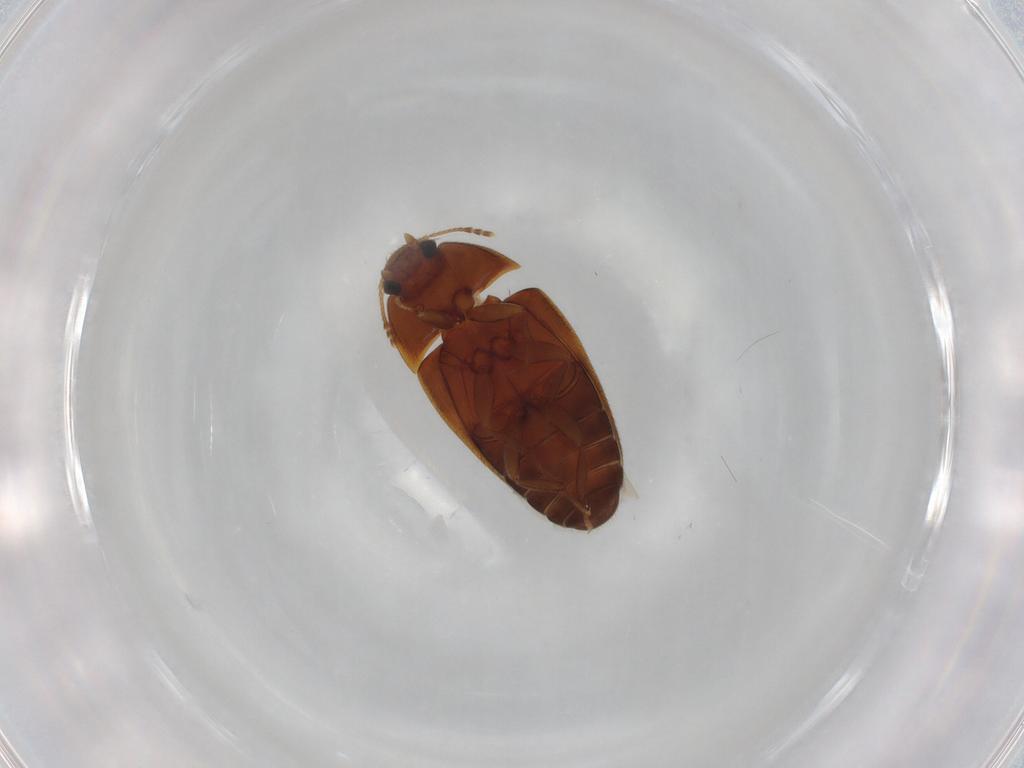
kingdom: Animalia
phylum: Arthropoda
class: Insecta
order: Coleoptera
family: Mycetophagidae
